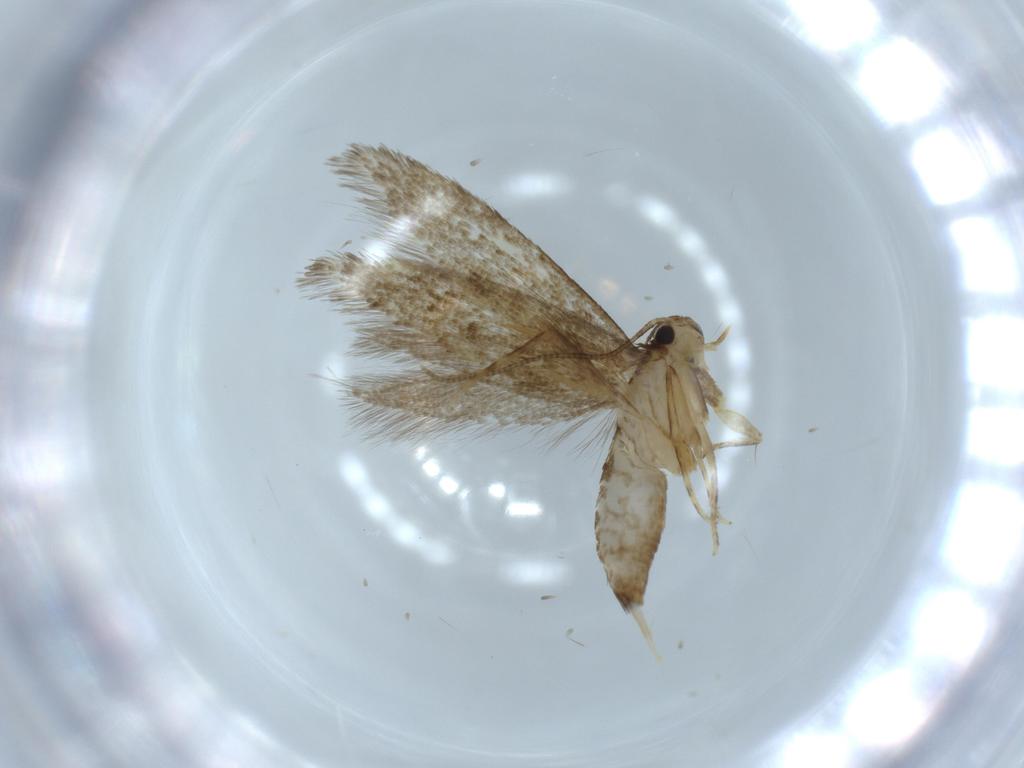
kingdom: Animalia
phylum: Arthropoda
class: Insecta
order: Lepidoptera
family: Tineidae
